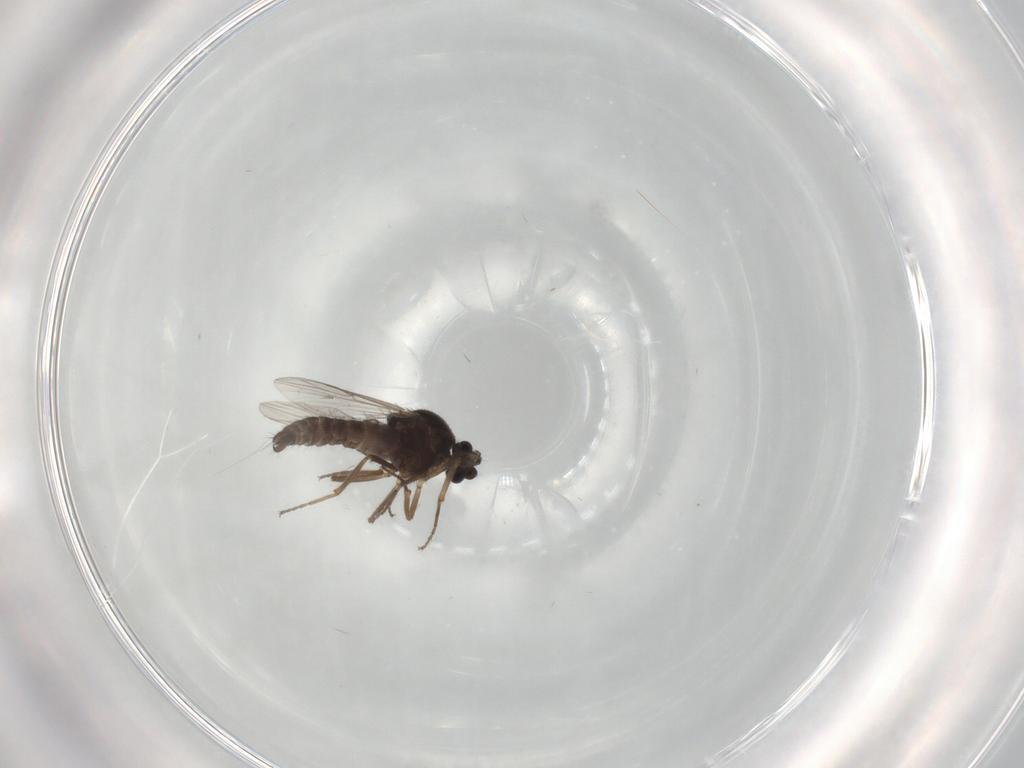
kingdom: Animalia
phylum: Arthropoda
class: Insecta
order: Diptera
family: Ceratopogonidae
